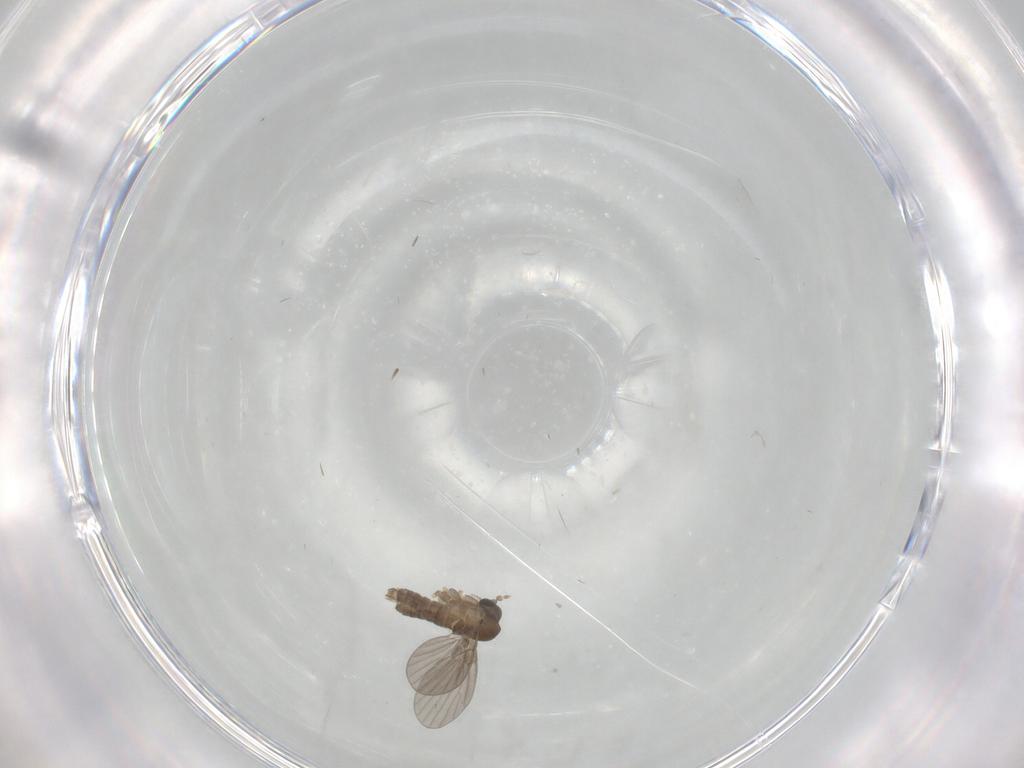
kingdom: Animalia
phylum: Arthropoda
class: Insecta
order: Diptera
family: Psychodidae
